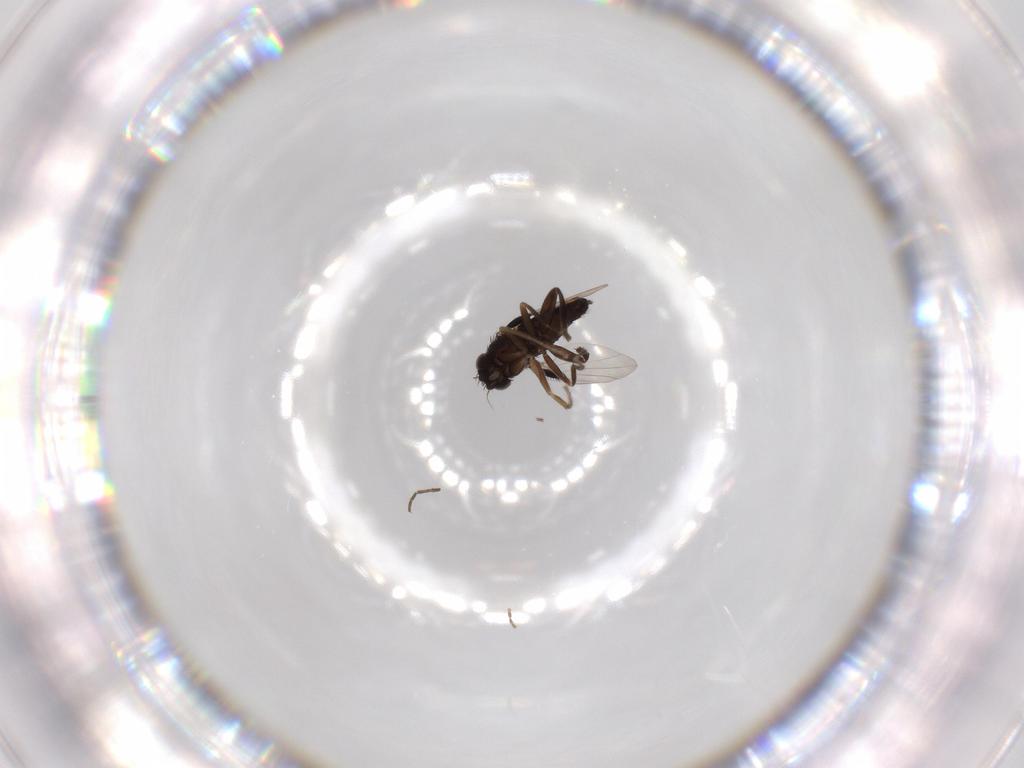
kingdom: Animalia
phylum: Arthropoda
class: Insecta
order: Diptera
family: Phoridae
